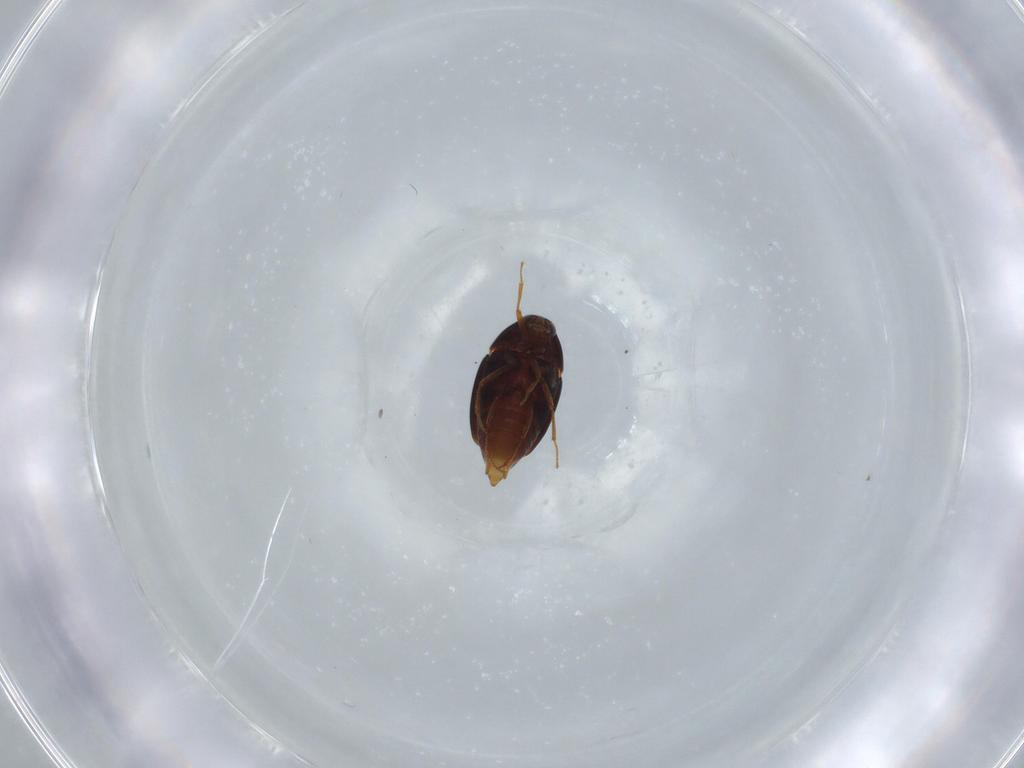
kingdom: Animalia
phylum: Arthropoda
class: Insecta
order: Coleoptera
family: Staphylinidae
